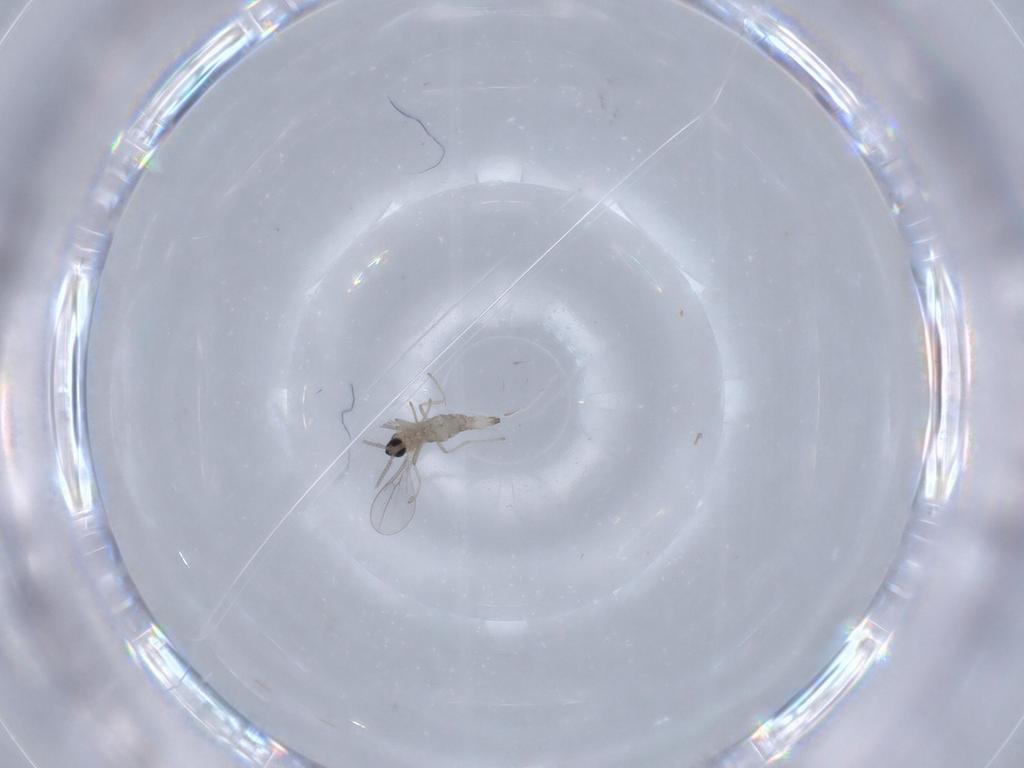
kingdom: Animalia
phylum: Arthropoda
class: Insecta
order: Diptera
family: Cecidomyiidae
